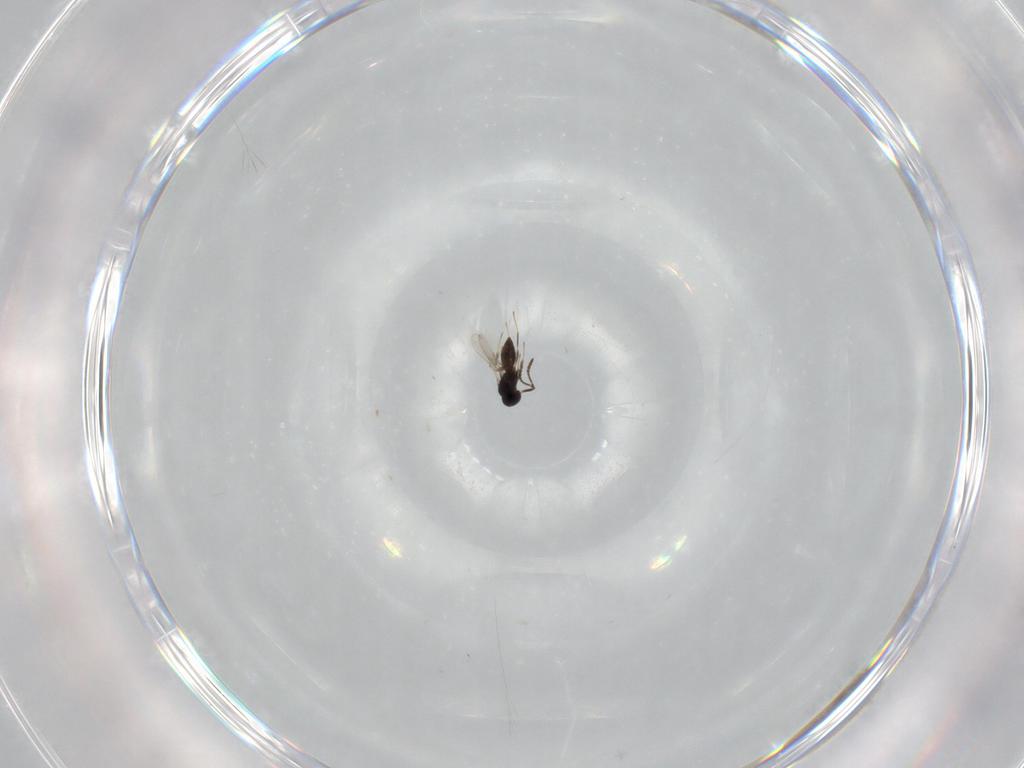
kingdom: Animalia
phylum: Arthropoda
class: Insecta
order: Hymenoptera
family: Scelionidae
